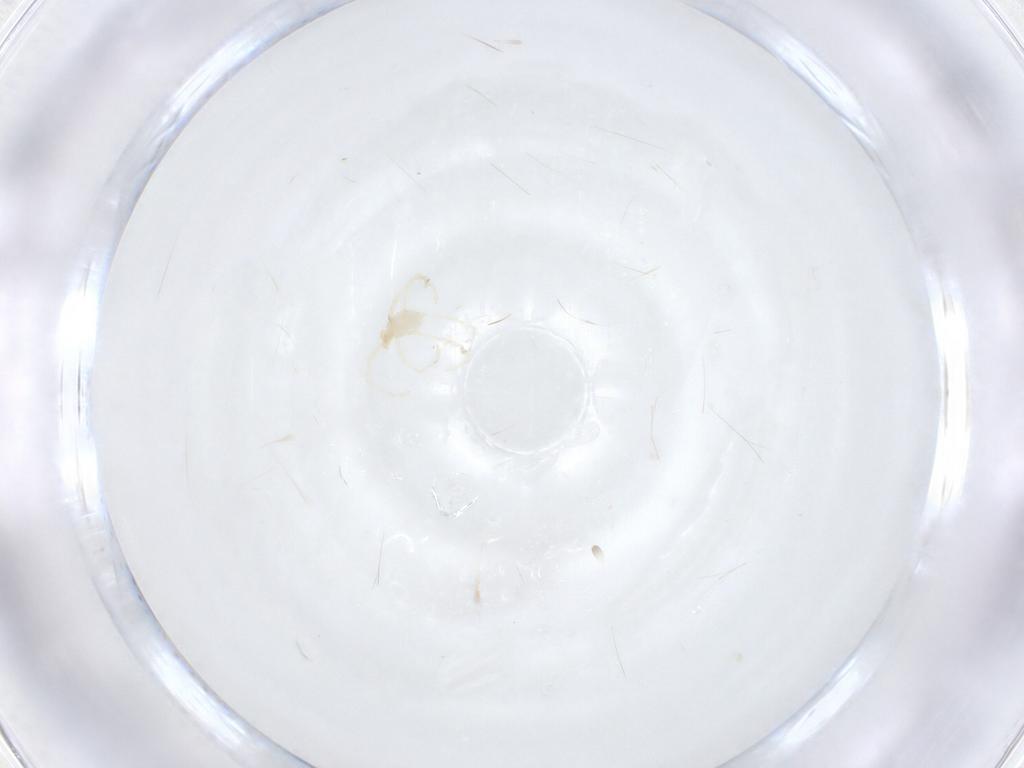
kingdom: Animalia
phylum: Arthropoda
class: Arachnida
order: Trombidiformes
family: Erythraeidae
